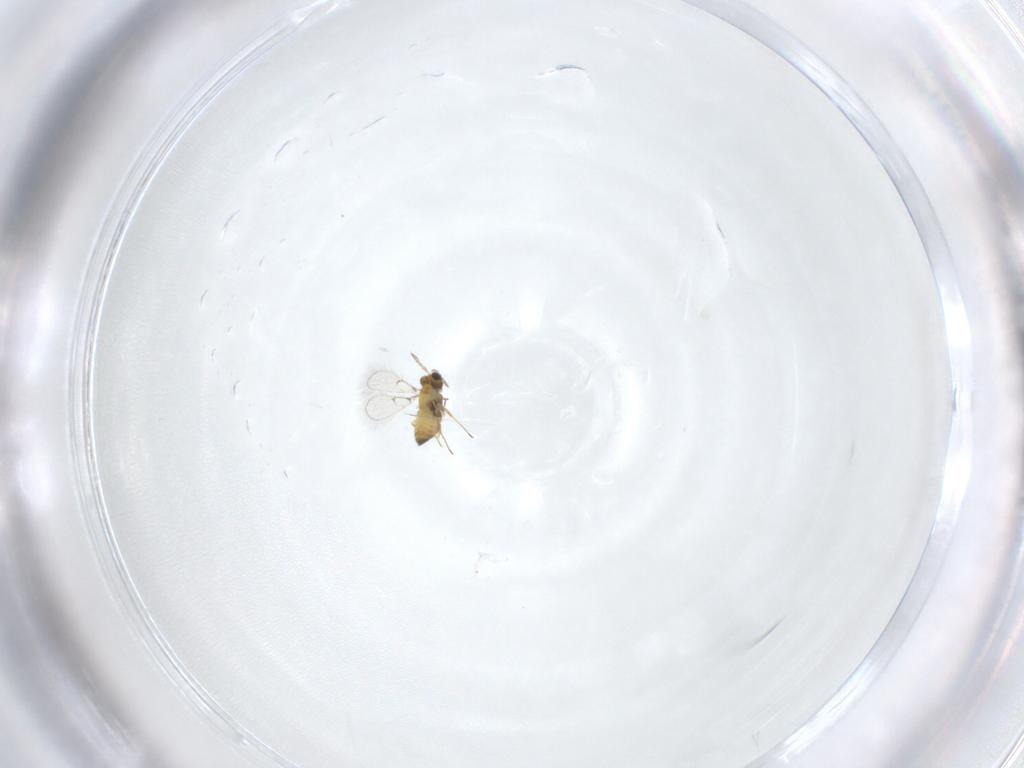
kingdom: Animalia
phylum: Arthropoda
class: Insecta
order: Hymenoptera
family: Trichogrammatidae
